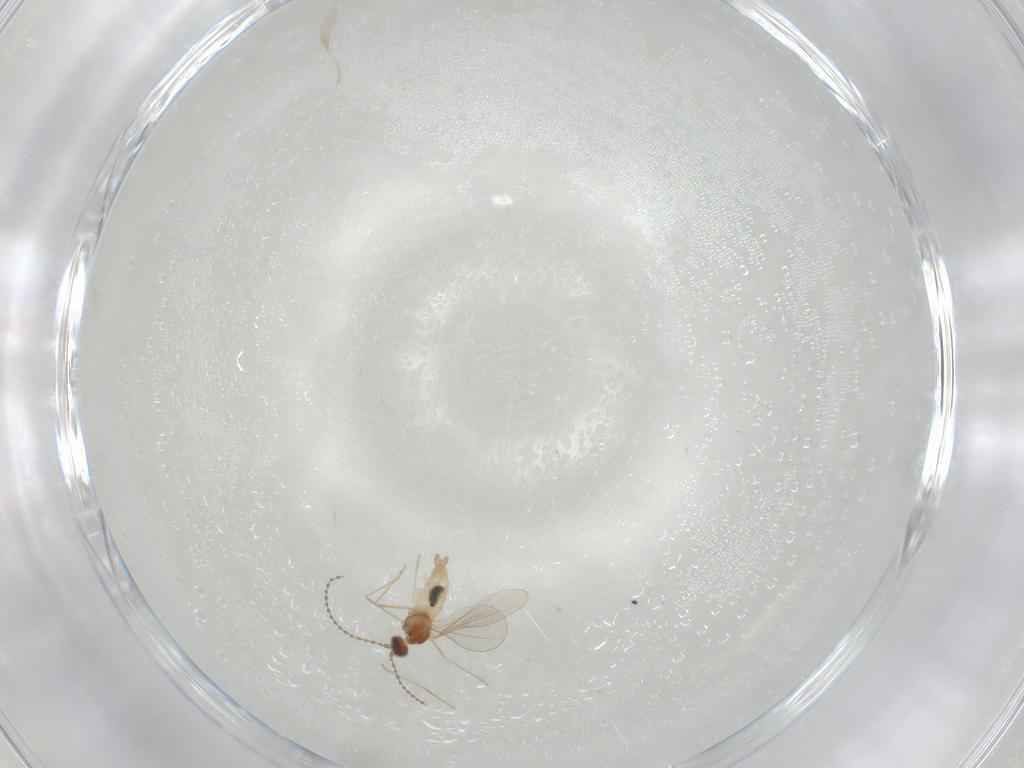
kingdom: Animalia
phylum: Arthropoda
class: Insecta
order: Diptera
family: Cecidomyiidae
